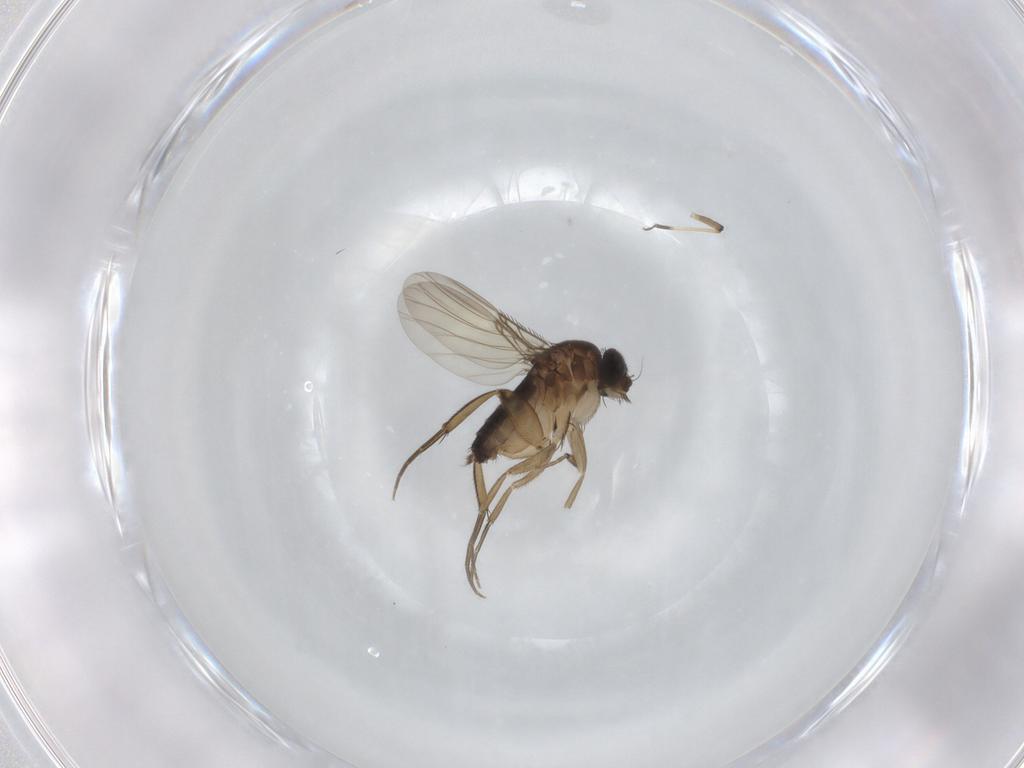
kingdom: Animalia
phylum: Arthropoda
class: Insecta
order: Diptera
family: Phoridae
